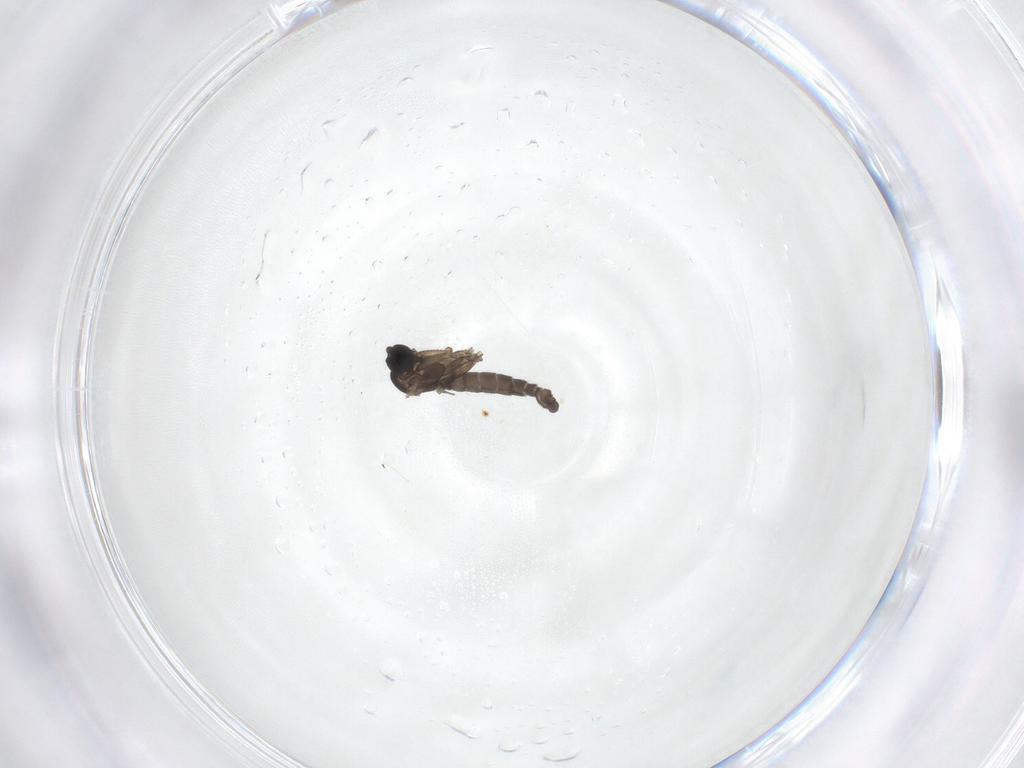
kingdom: Animalia
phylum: Arthropoda
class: Insecta
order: Diptera
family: Sciaridae
